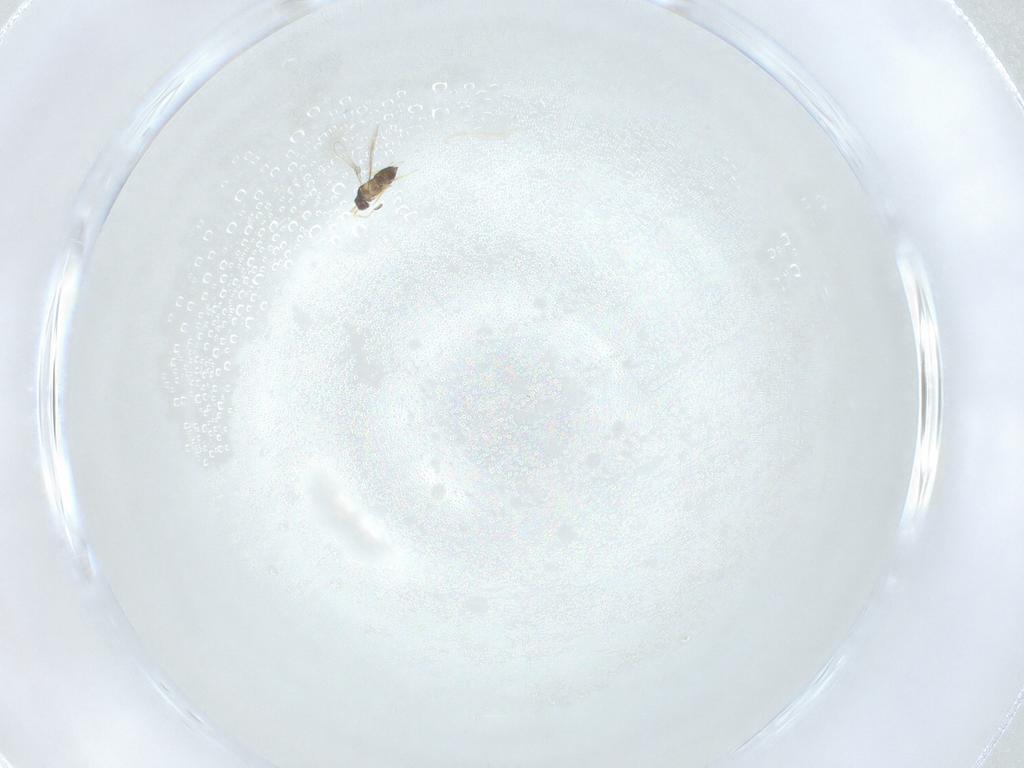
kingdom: Animalia
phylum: Arthropoda
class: Insecta
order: Hymenoptera
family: Mymaridae
